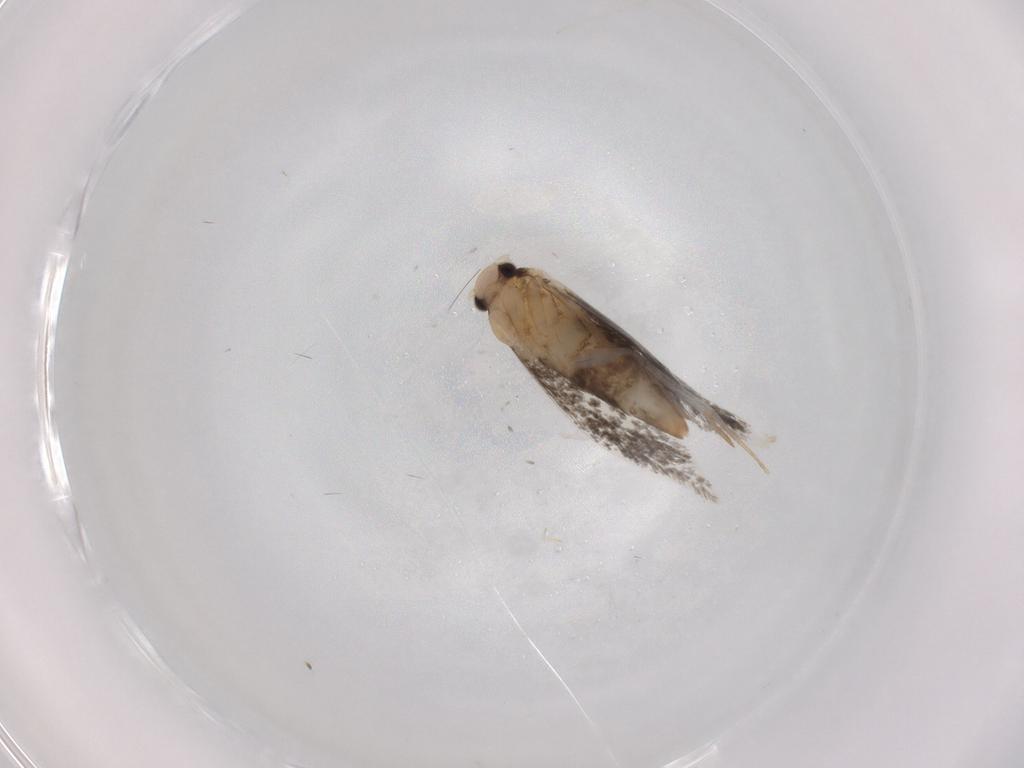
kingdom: Animalia
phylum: Arthropoda
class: Insecta
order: Lepidoptera
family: Tineidae
